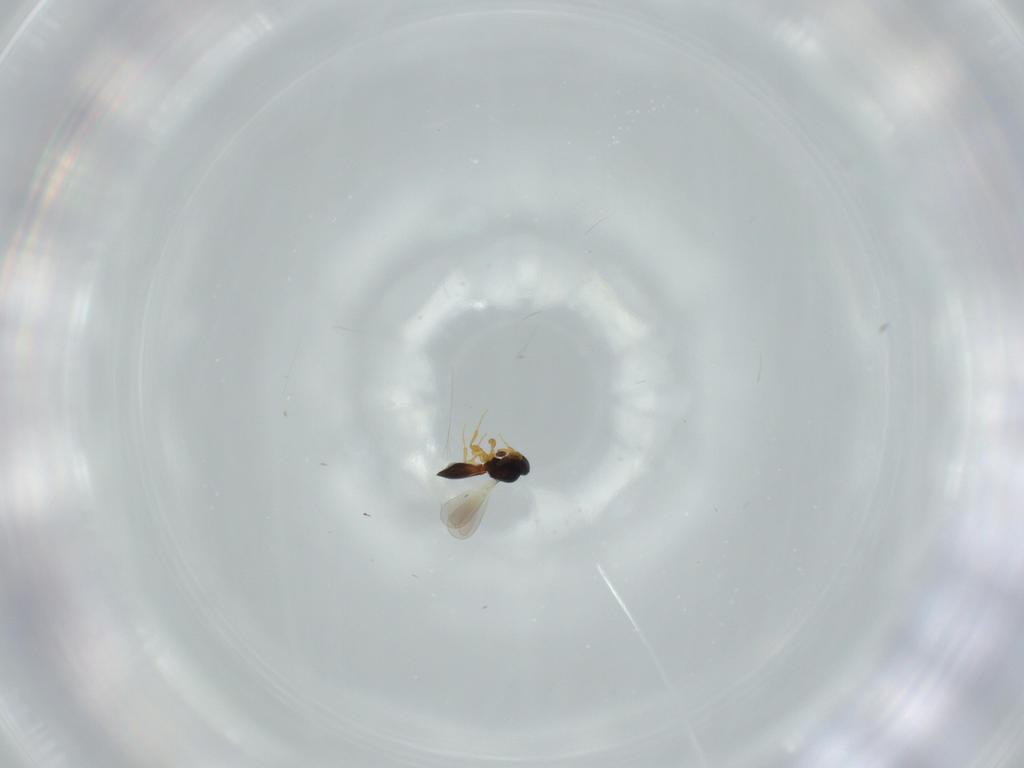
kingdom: Animalia
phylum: Arthropoda
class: Insecta
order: Hymenoptera
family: Platygastridae
